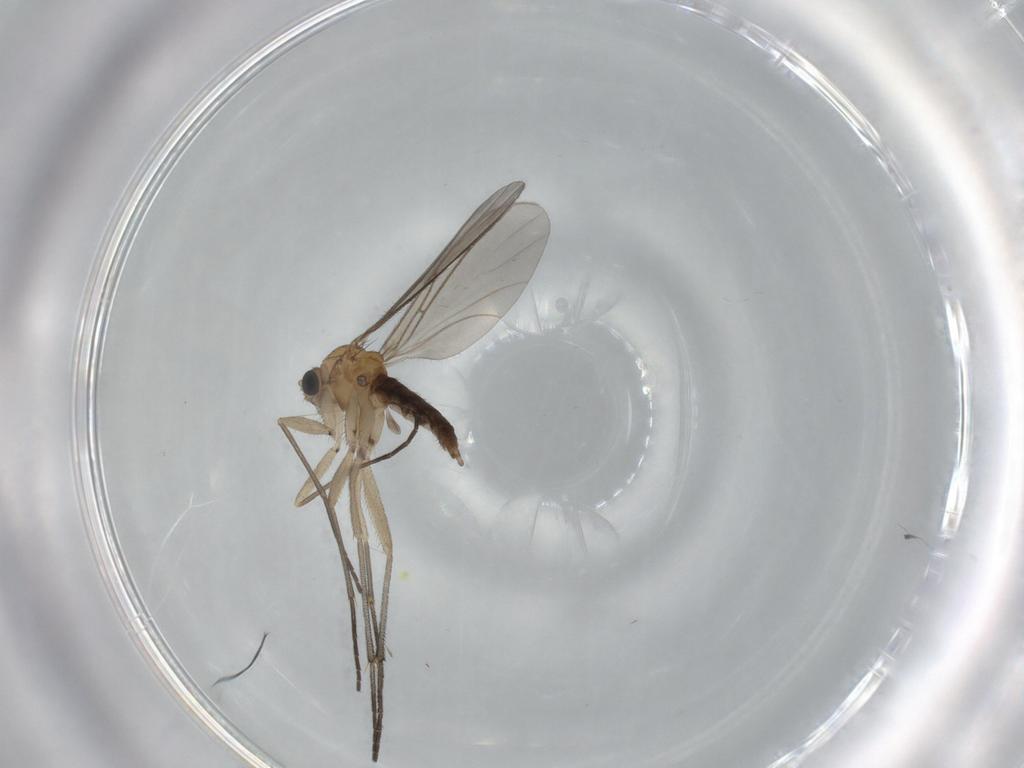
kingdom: Animalia
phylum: Arthropoda
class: Insecta
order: Diptera
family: Sciaridae
